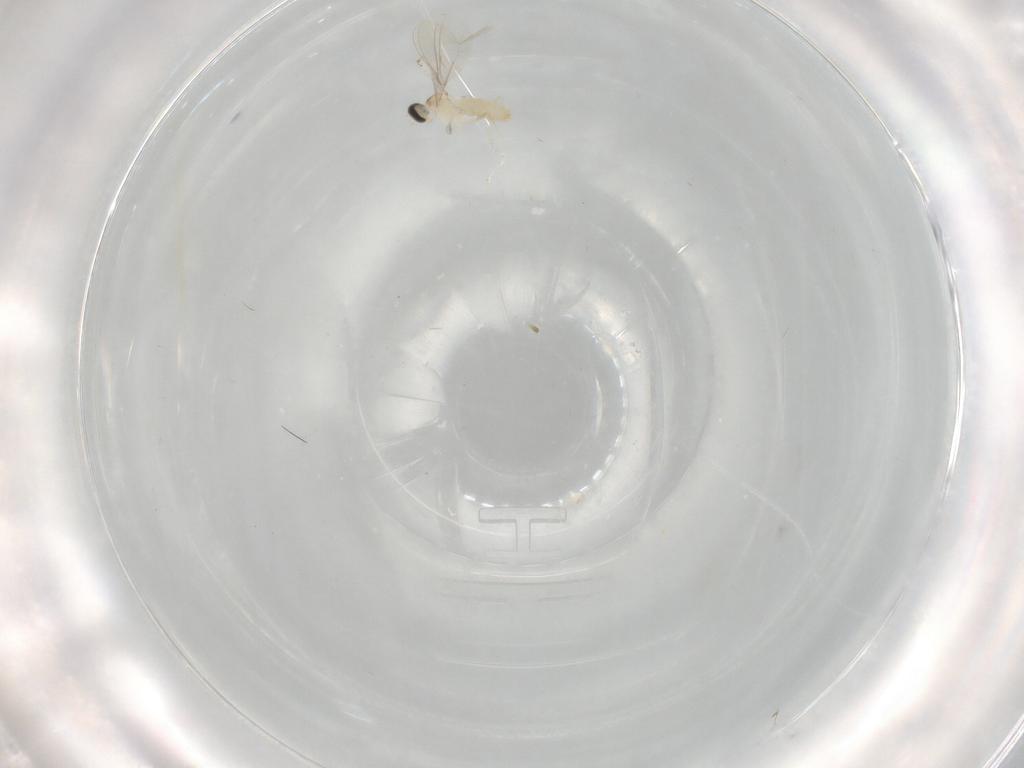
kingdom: Animalia
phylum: Arthropoda
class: Insecta
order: Diptera
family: Cecidomyiidae
